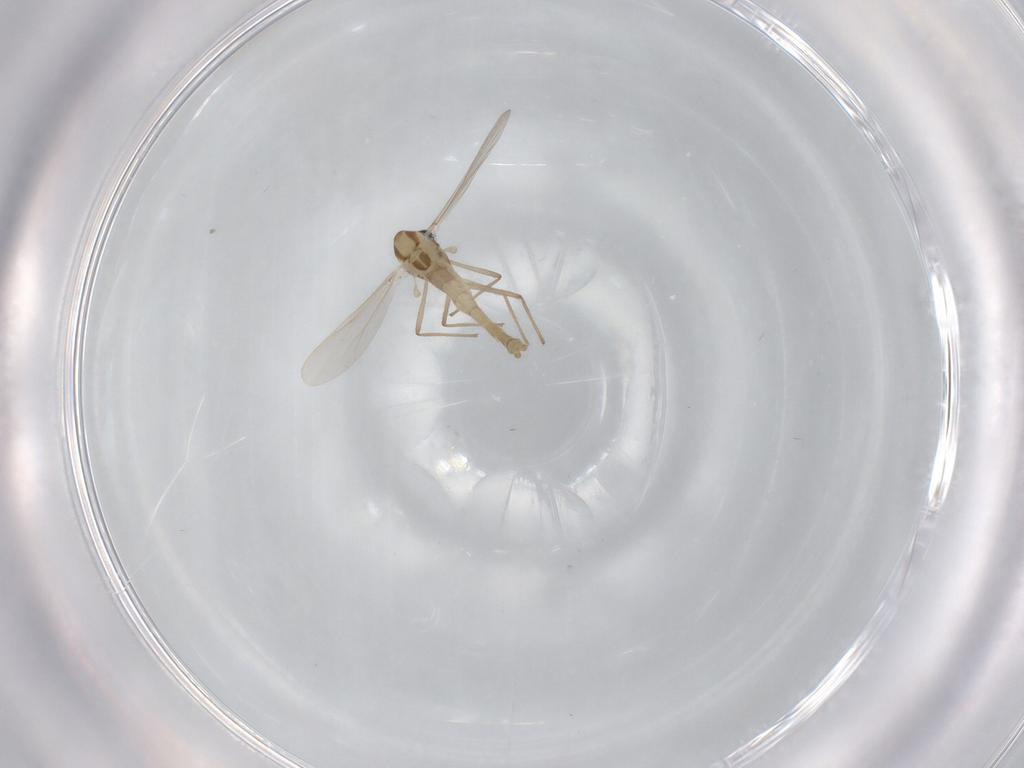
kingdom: Animalia
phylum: Arthropoda
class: Insecta
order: Diptera
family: Chironomidae
